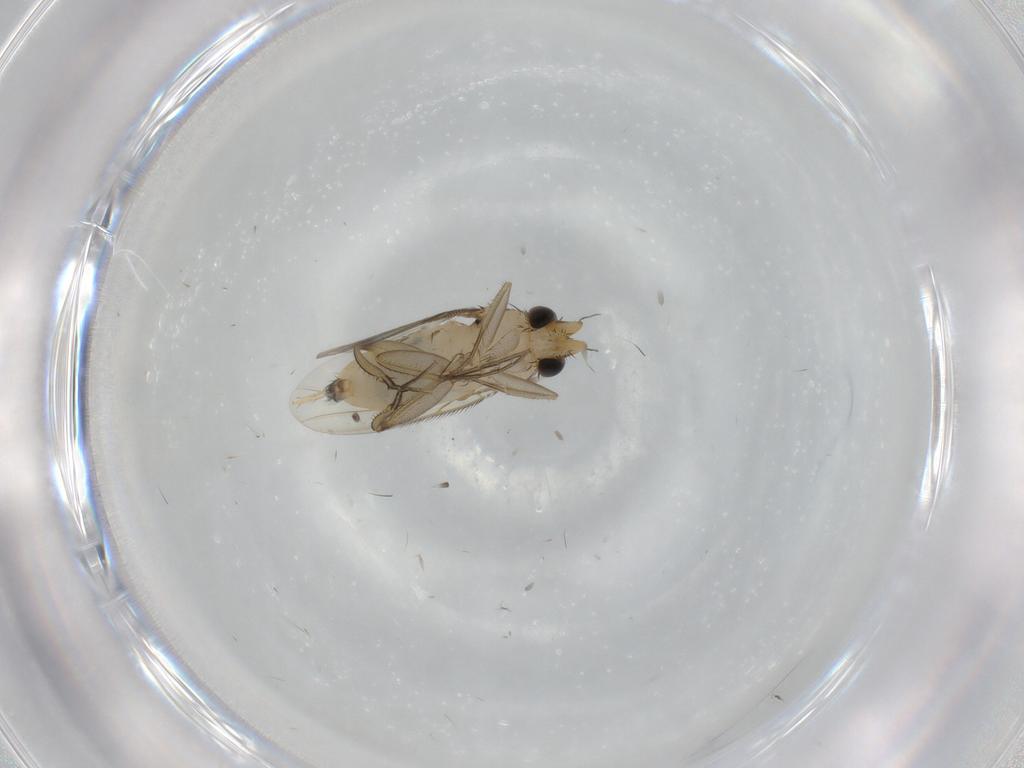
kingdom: Animalia
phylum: Arthropoda
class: Insecta
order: Diptera
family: Phoridae
